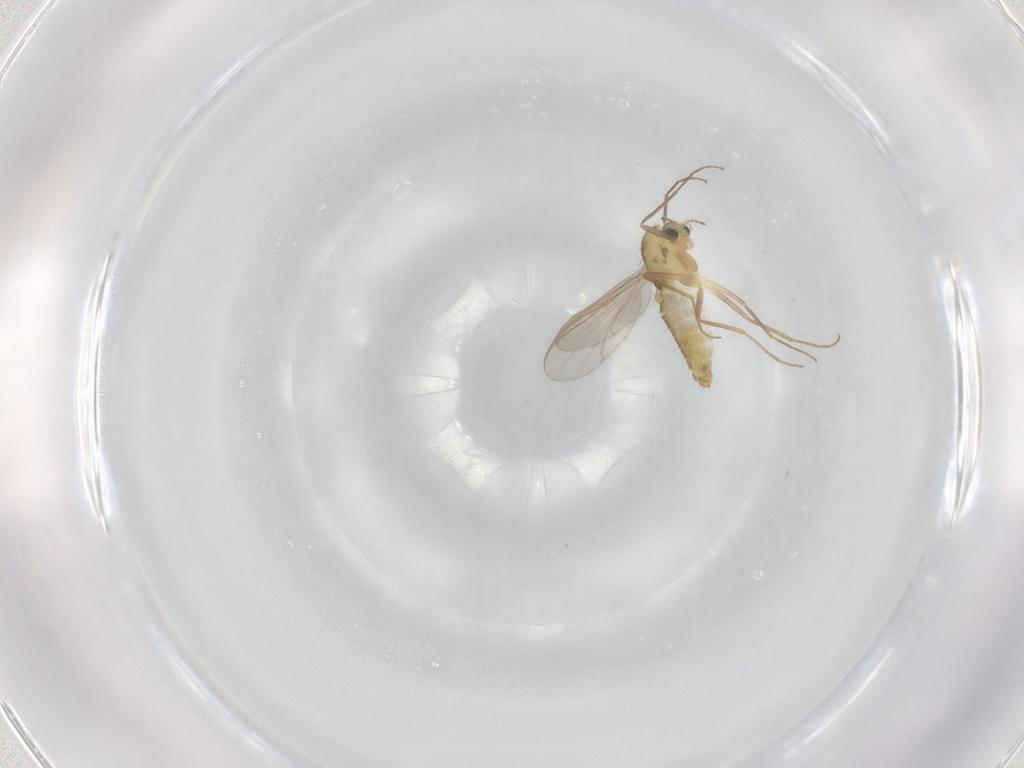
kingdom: Animalia
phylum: Arthropoda
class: Insecta
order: Diptera
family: Chironomidae
